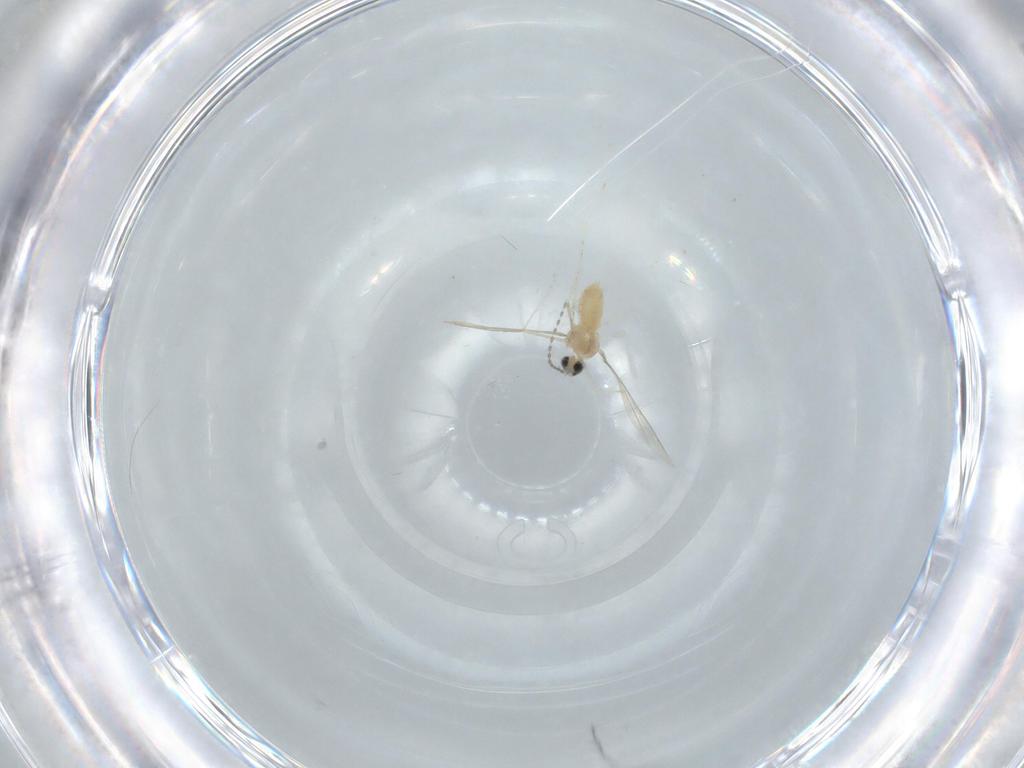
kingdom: Animalia
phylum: Arthropoda
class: Insecta
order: Diptera
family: Cecidomyiidae
